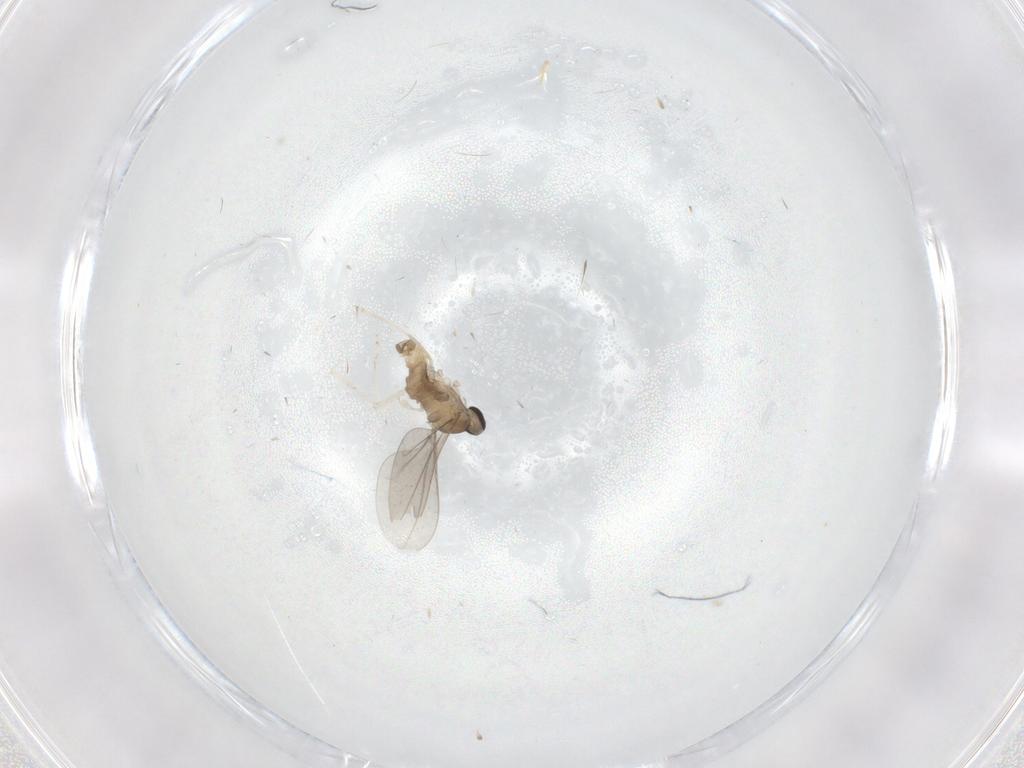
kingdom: Animalia
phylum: Arthropoda
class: Insecta
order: Diptera
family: Cecidomyiidae
